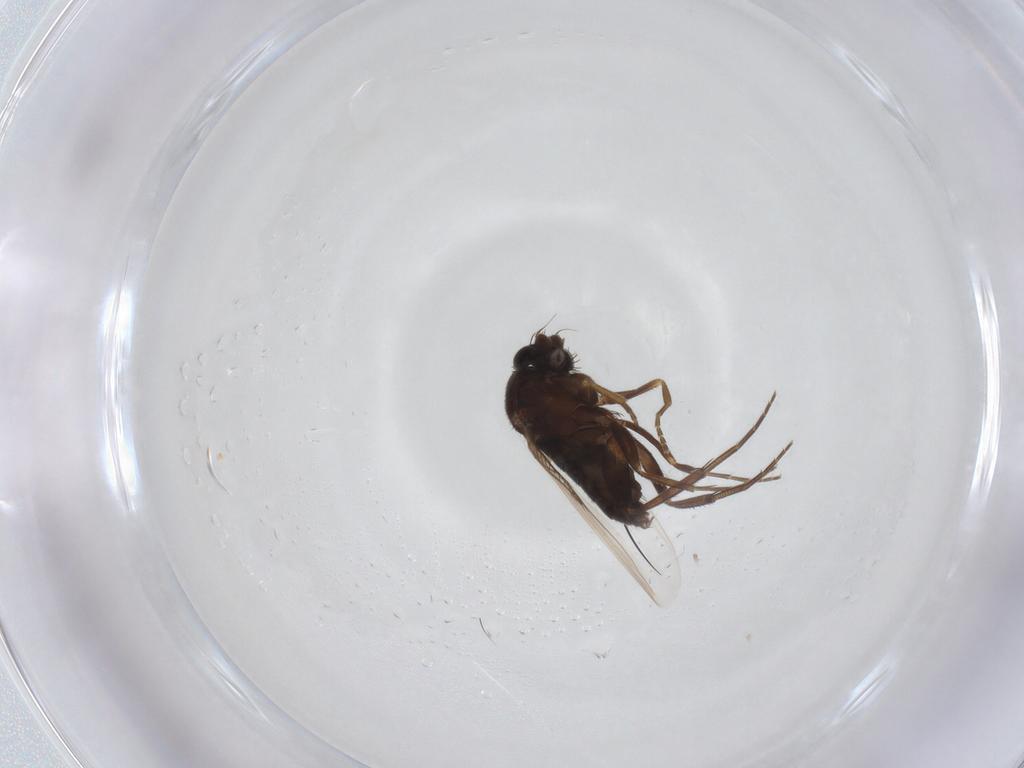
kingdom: Animalia
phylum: Arthropoda
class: Insecta
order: Diptera
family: Phoridae
